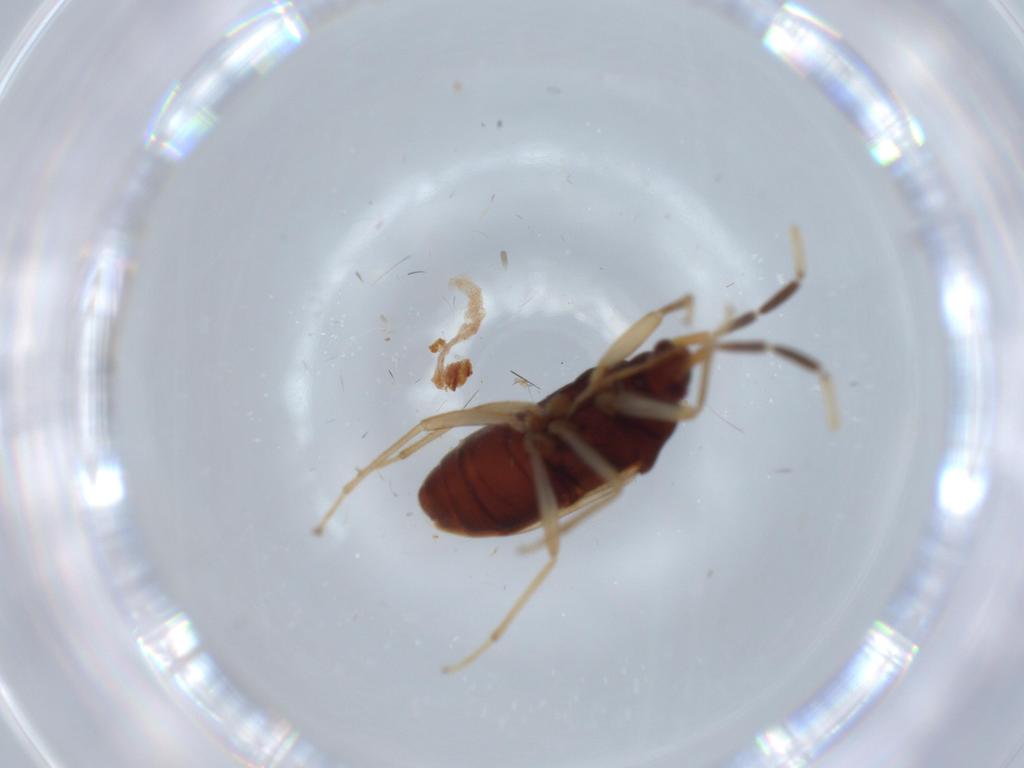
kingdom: Animalia
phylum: Arthropoda
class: Insecta
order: Hemiptera
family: Rhyparochromidae
